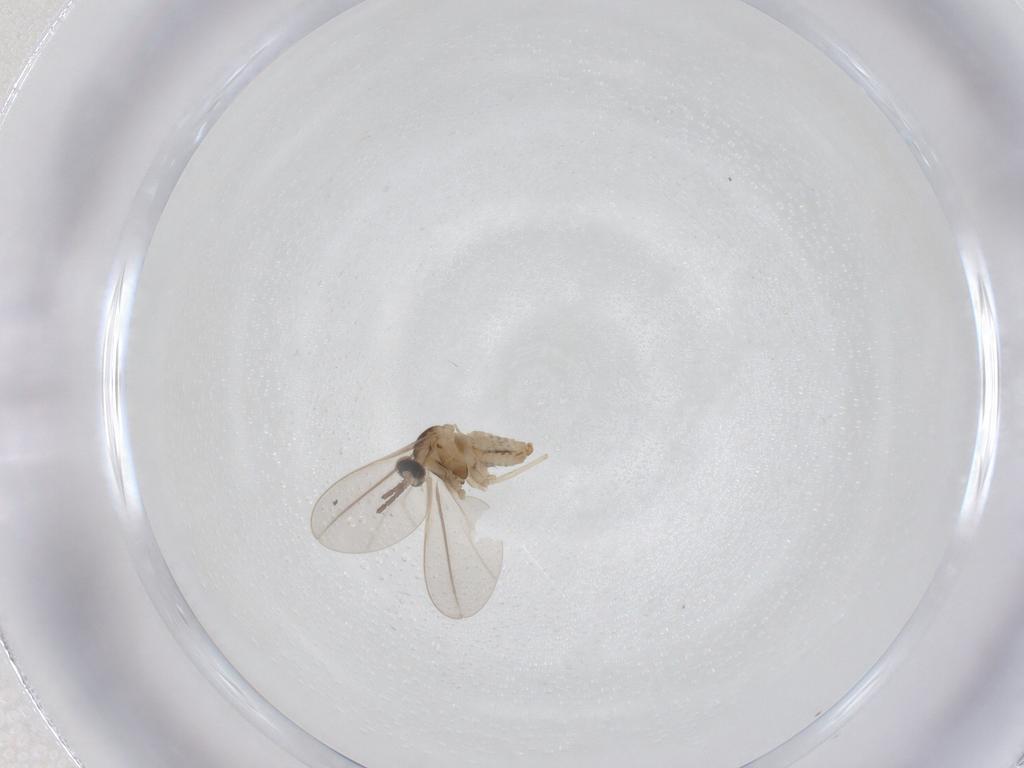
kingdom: Animalia
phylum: Arthropoda
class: Insecta
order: Diptera
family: Cecidomyiidae
